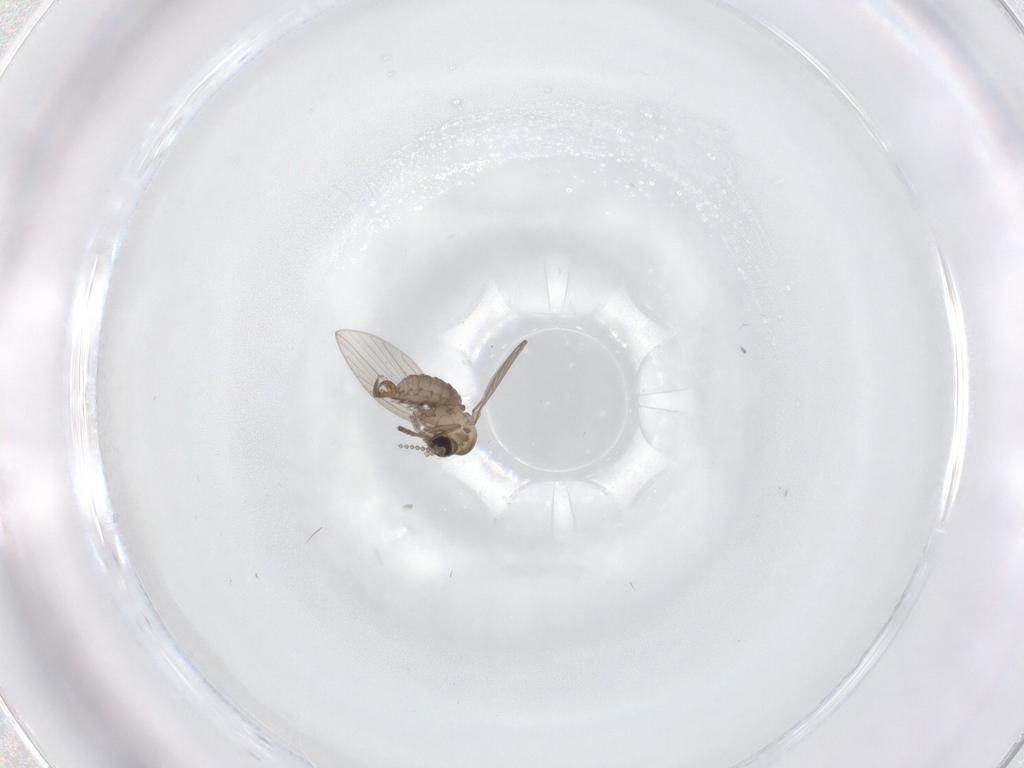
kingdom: Animalia
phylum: Arthropoda
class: Insecta
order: Diptera
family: Psychodidae
